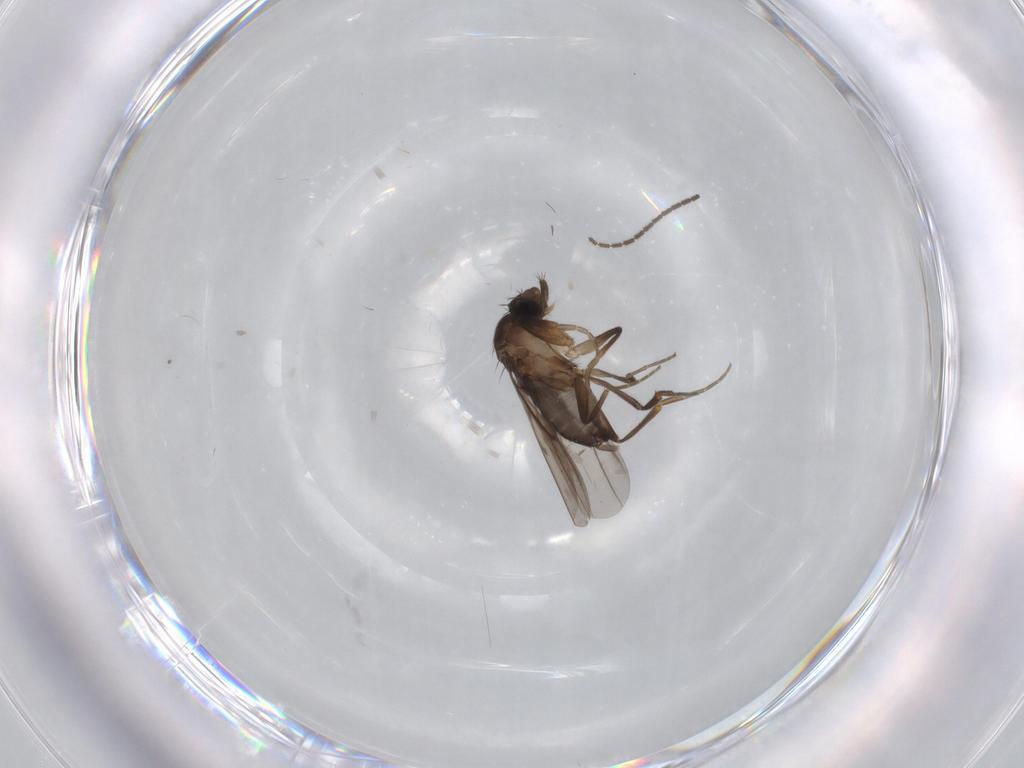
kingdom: Animalia
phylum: Arthropoda
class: Insecta
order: Diptera
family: Phoridae
